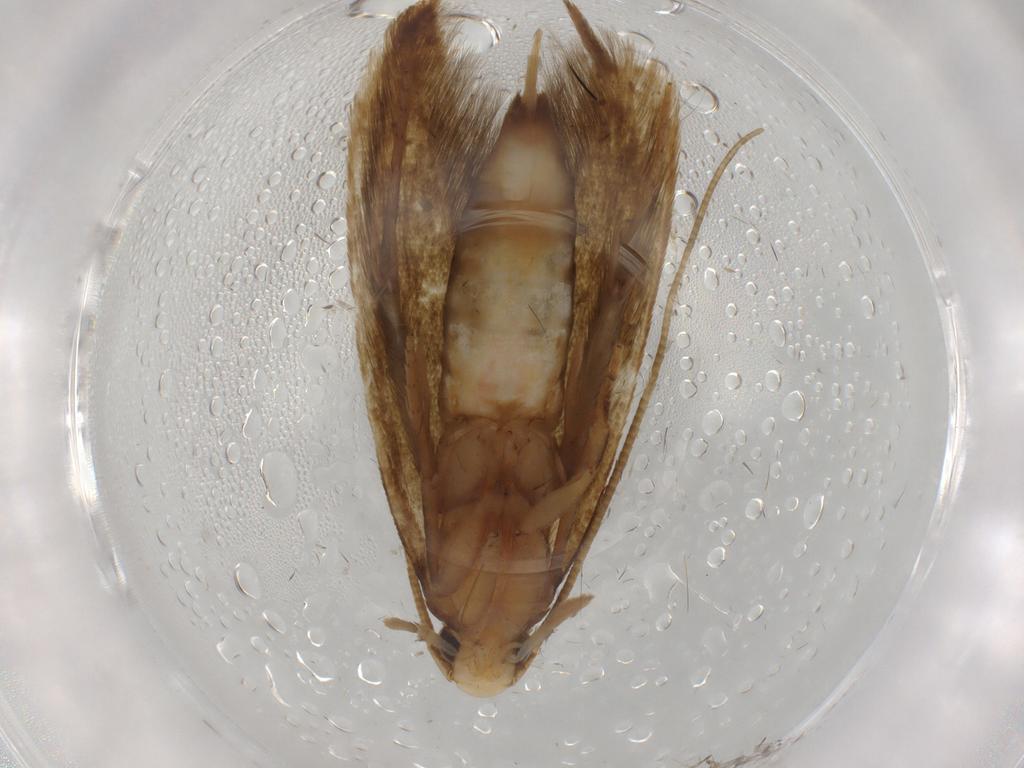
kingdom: Animalia
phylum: Arthropoda
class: Insecta
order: Lepidoptera
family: Tineidae
